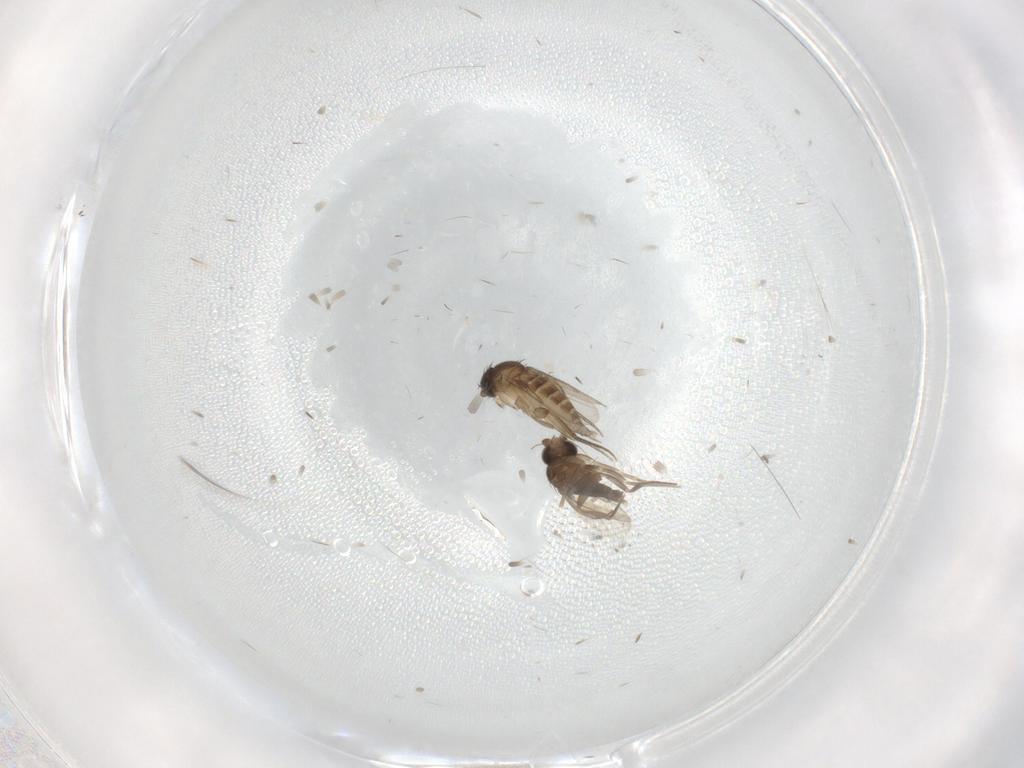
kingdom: Animalia
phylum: Arthropoda
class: Insecta
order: Diptera
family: Phoridae
